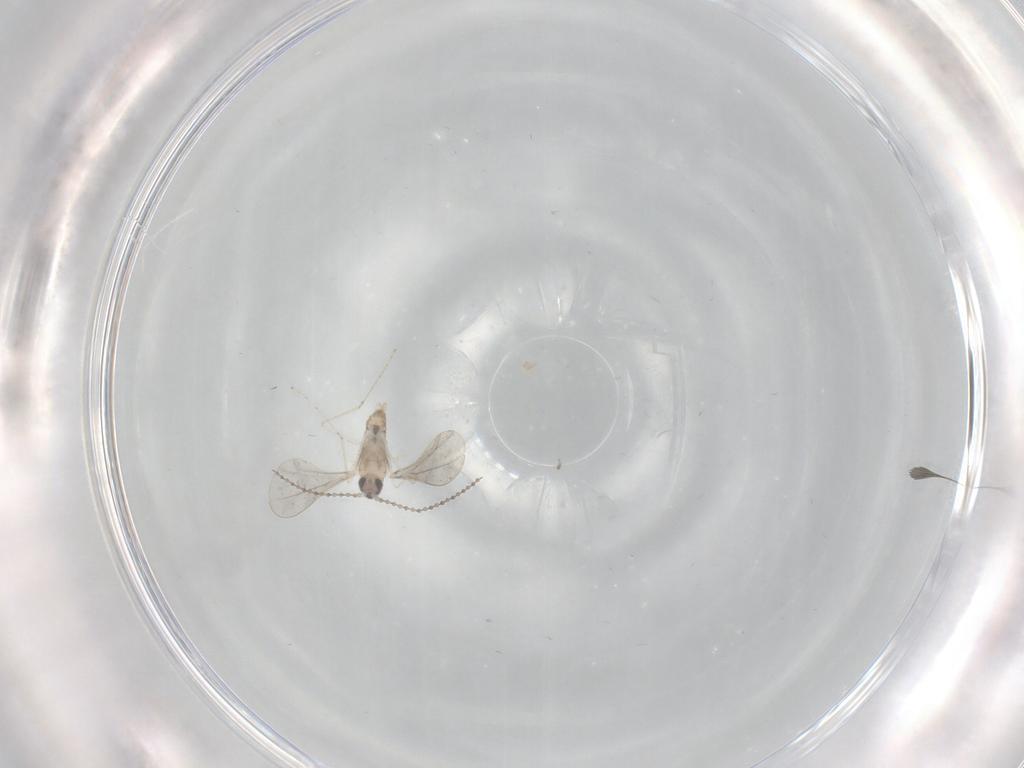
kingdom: Animalia
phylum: Arthropoda
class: Insecta
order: Diptera
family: Cecidomyiidae
